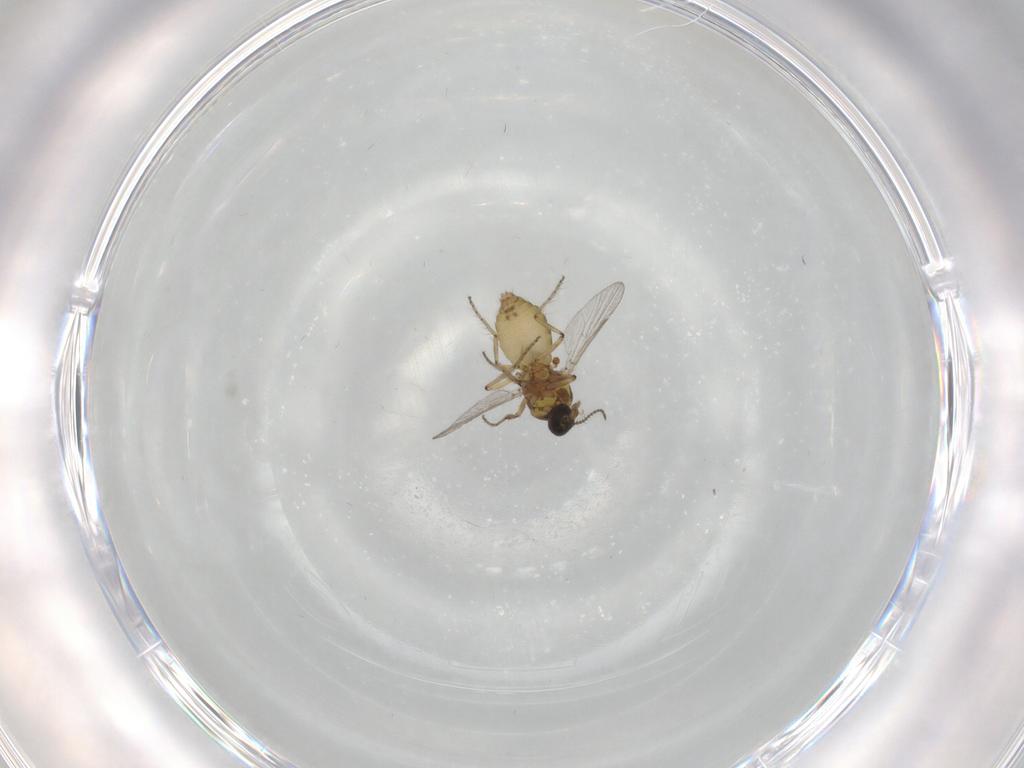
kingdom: Animalia
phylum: Arthropoda
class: Insecta
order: Diptera
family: Ceratopogonidae
